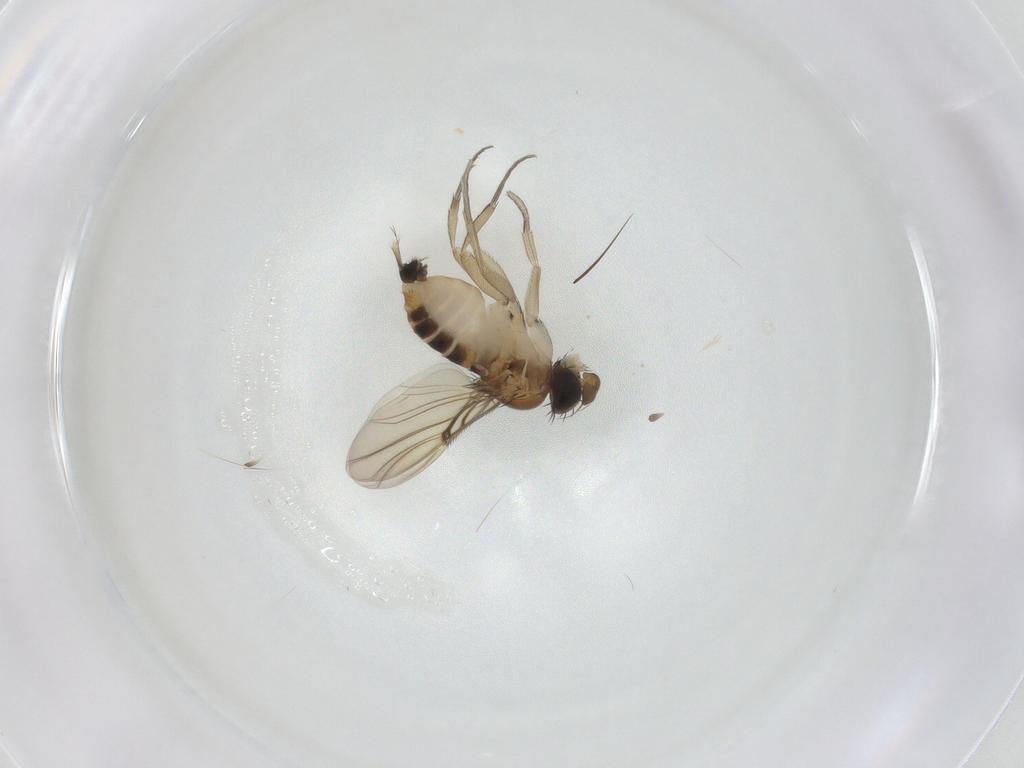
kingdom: Animalia
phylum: Arthropoda
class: Insecta
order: Diptera
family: Phoridae
